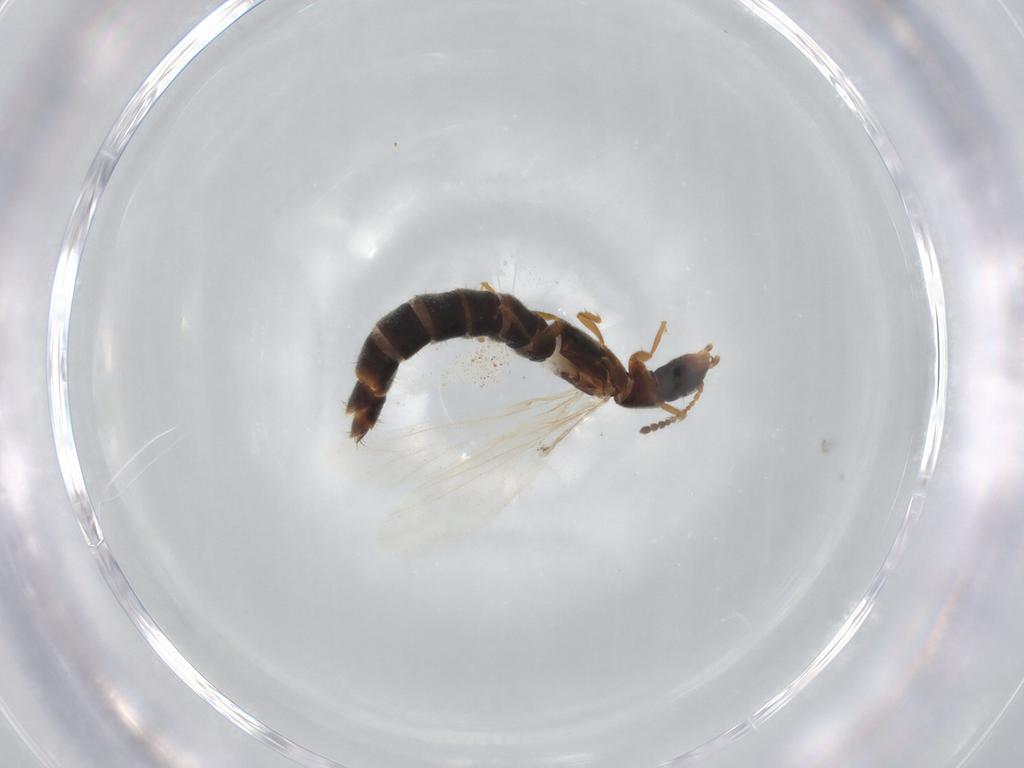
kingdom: Animalia
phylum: Arthropoda
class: Insecta
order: Coleoptera
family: Staphylinidae
